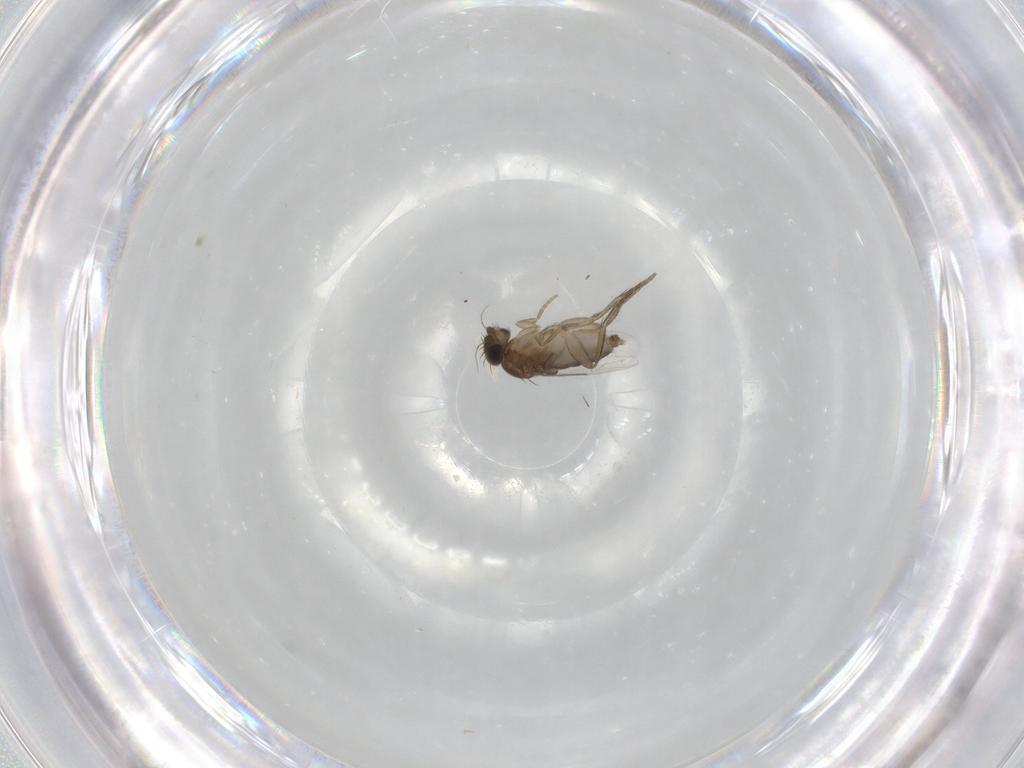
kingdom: Animalia
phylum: Arthropoda
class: Insecta
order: Diptera
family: Phoridae
